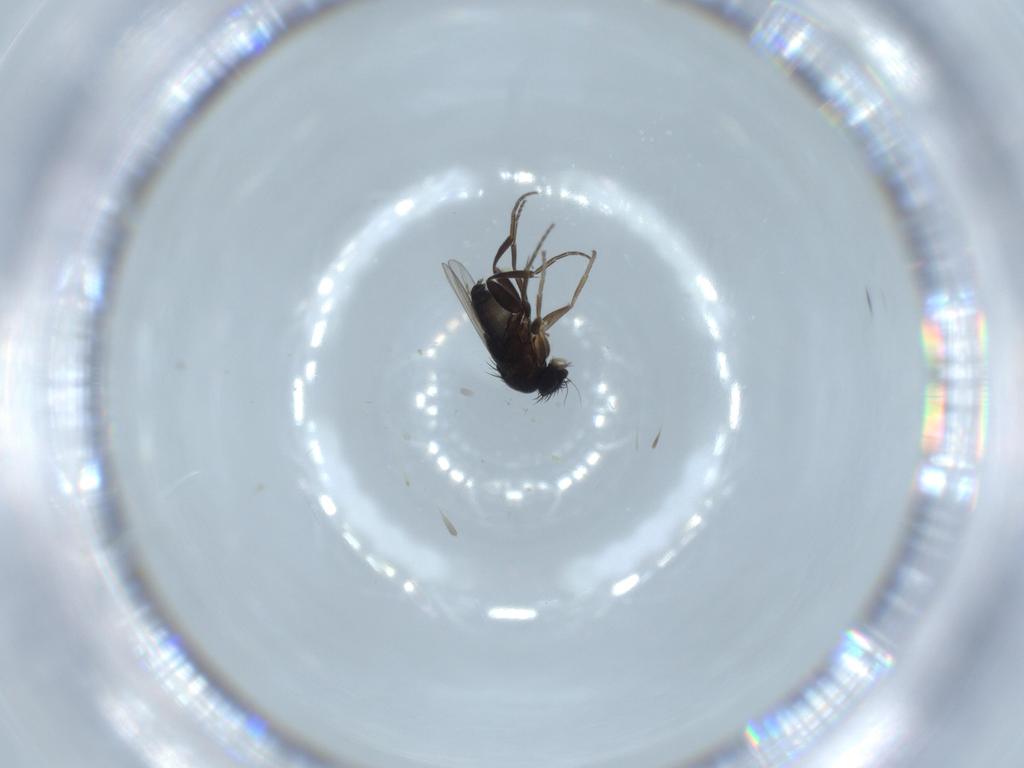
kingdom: Animalia
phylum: Arthropoda
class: Insecta
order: Diptera
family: Phoridae
